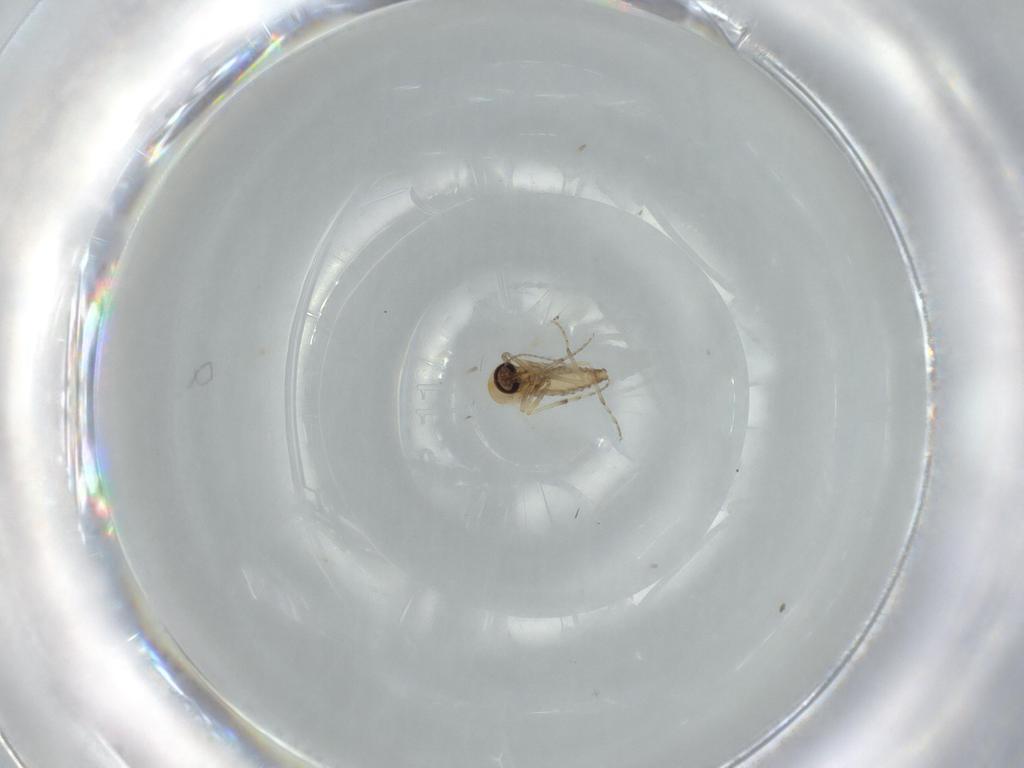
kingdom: Animalia
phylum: Arthropoda
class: Insecta
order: Diptera
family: Ceratopogonidae
